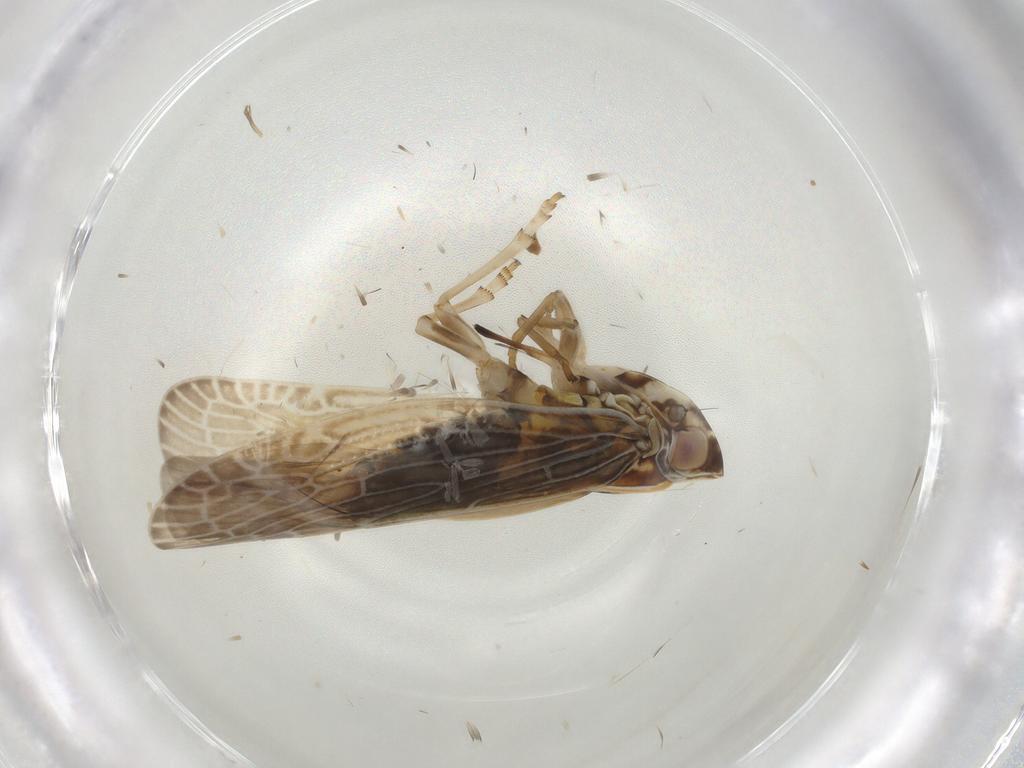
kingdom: Animalia
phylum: Arthropoda
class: Insecta
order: Hemiptera
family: Achilidae
